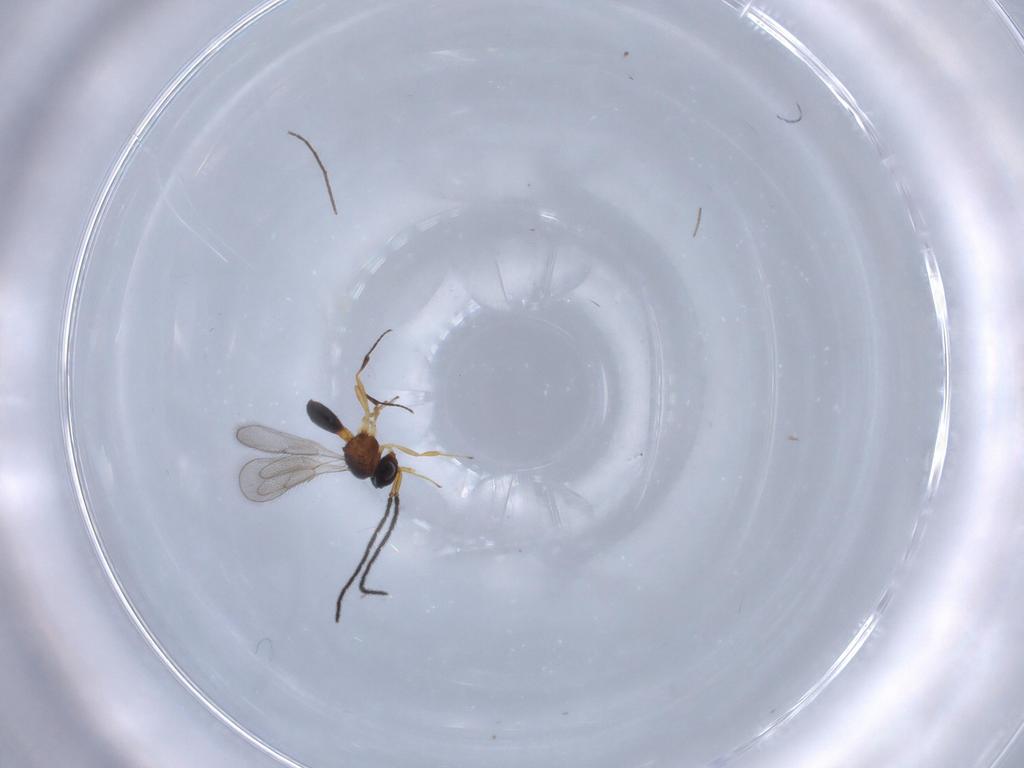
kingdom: Animalia
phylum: Arthropoda
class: Insecta
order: Hymenoptera
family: Scelionidae
